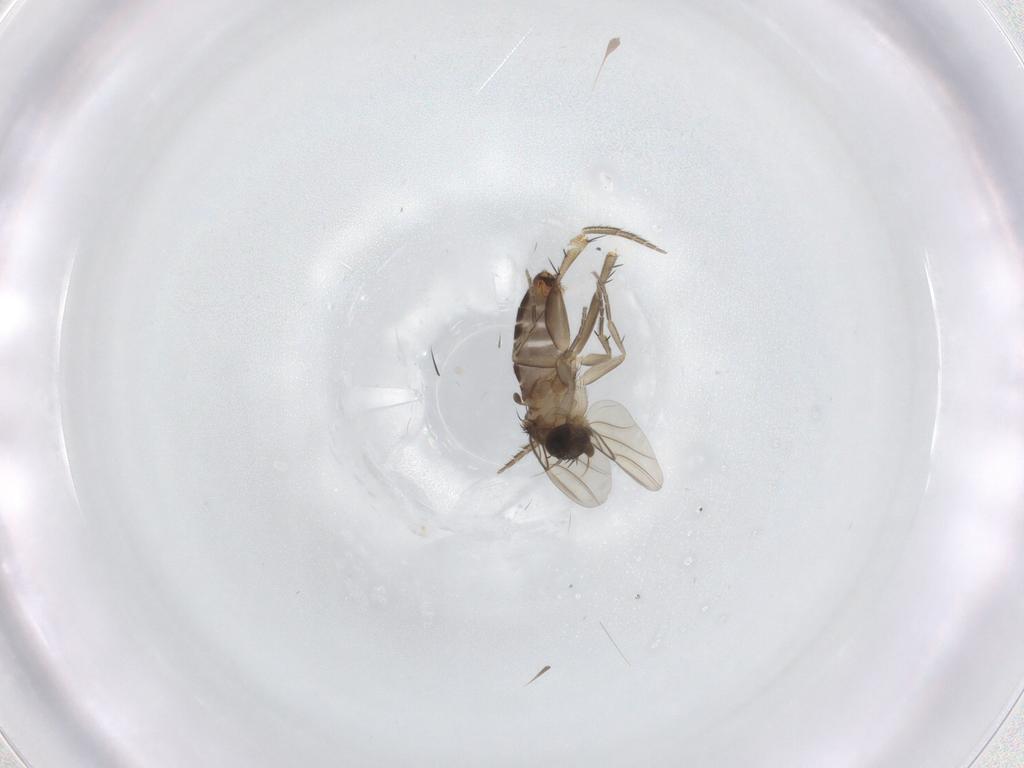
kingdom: Animalia
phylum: Arthropoda
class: Insecta
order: Diptera
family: Phoridae
